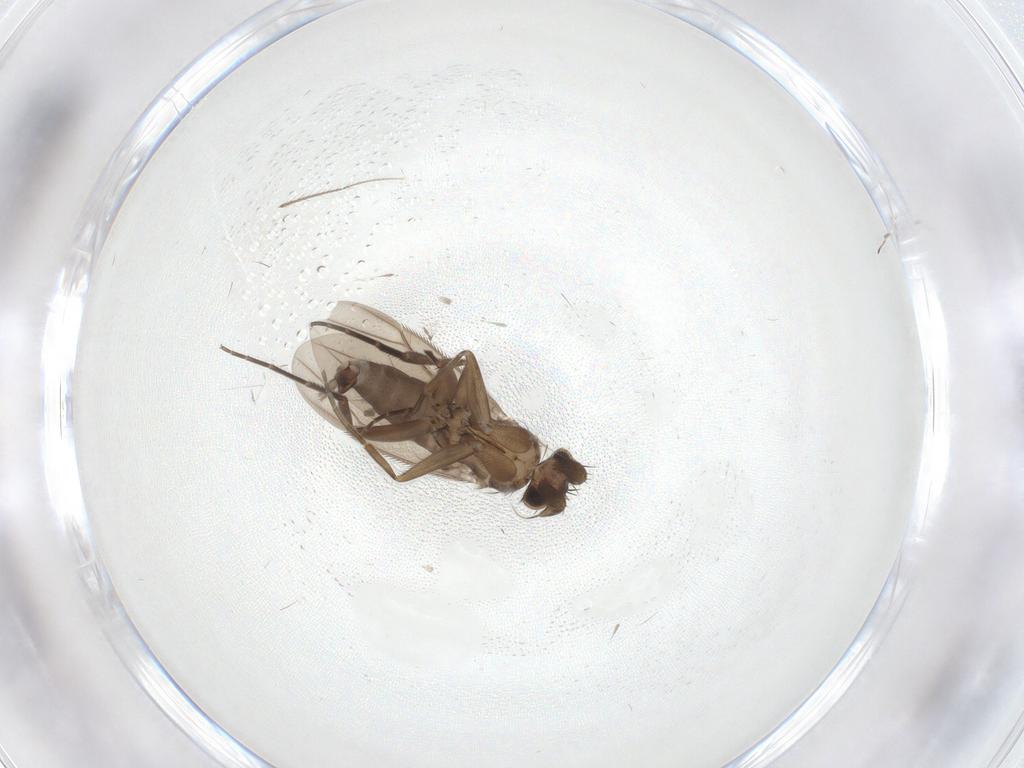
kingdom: Animalia
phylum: Arthropoda
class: Insecta
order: Diptera
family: Phoridae
